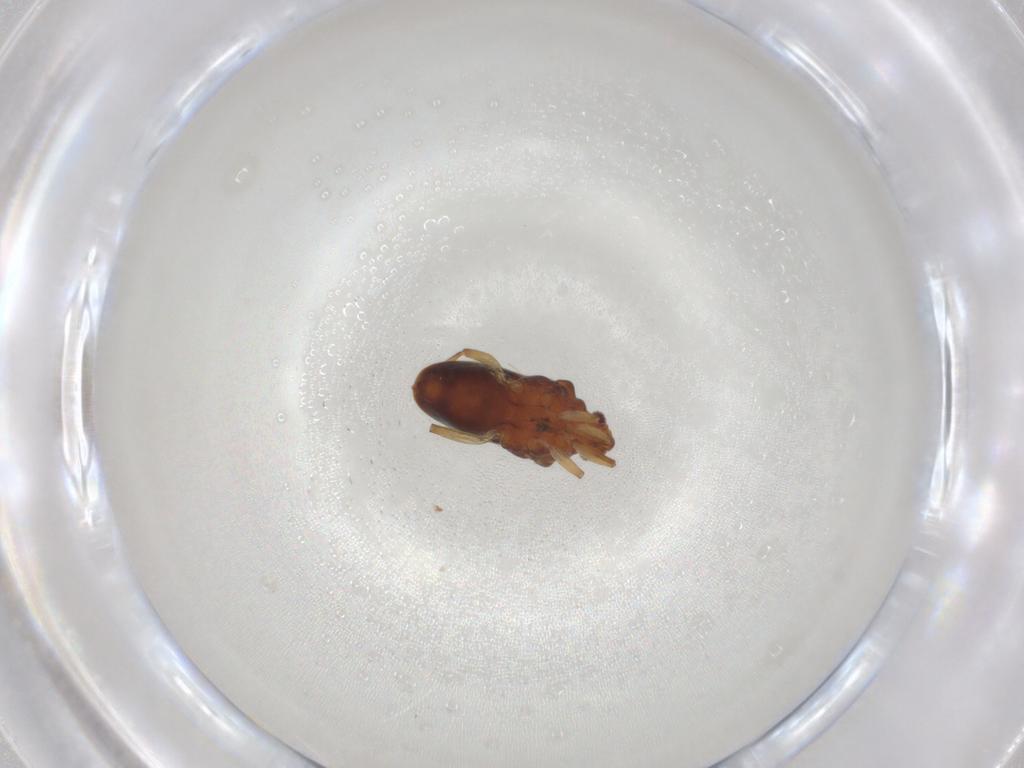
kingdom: Animalia
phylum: Arthropoda
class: Insecta
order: Hemiptera
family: Hebridae
